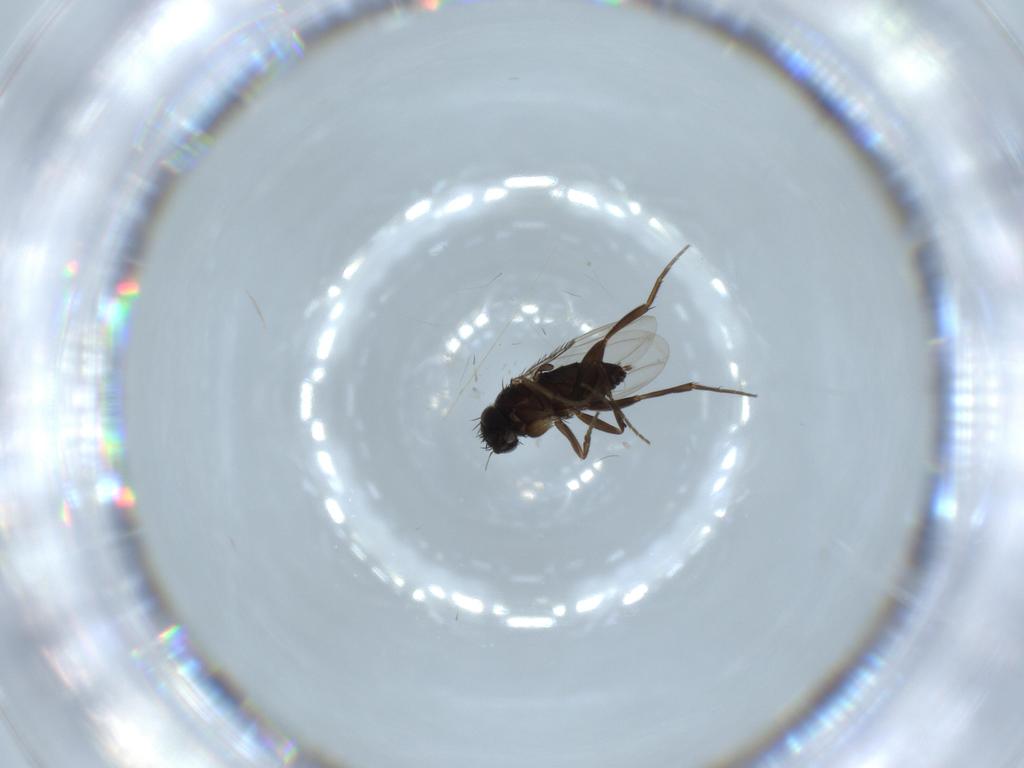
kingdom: Animalia
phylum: Arthropoda
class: Insecta
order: Diptera
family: Phoridae
